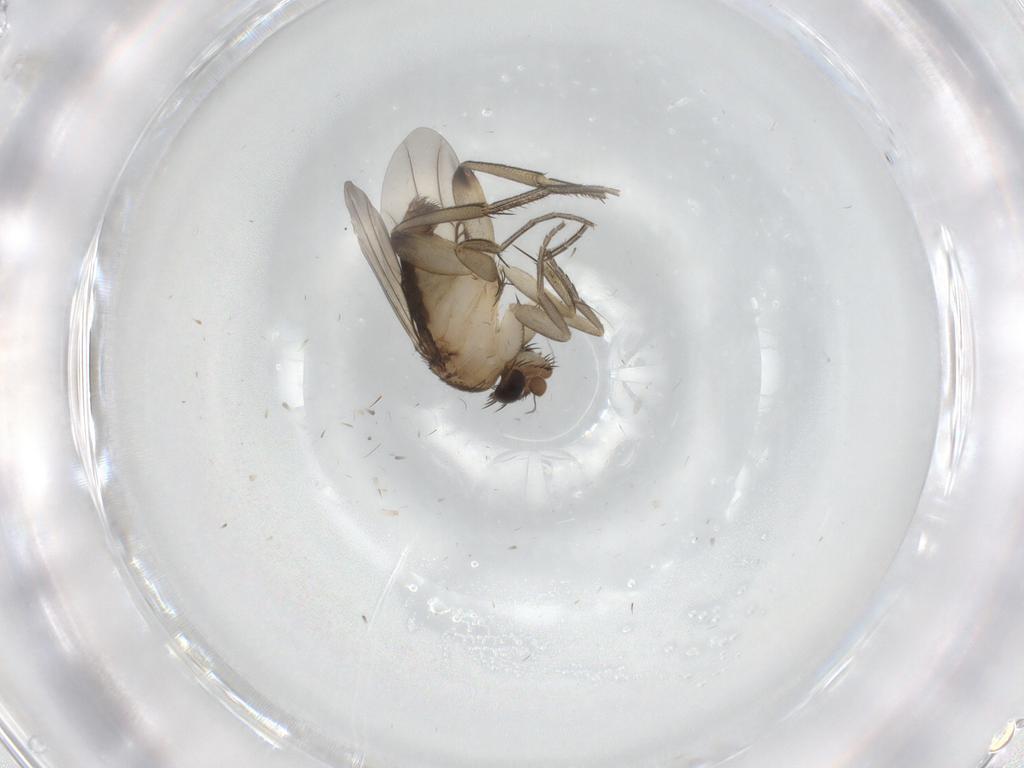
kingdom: Animalia
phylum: Arthropoda
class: Insecta
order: Diptera
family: Phoridae
